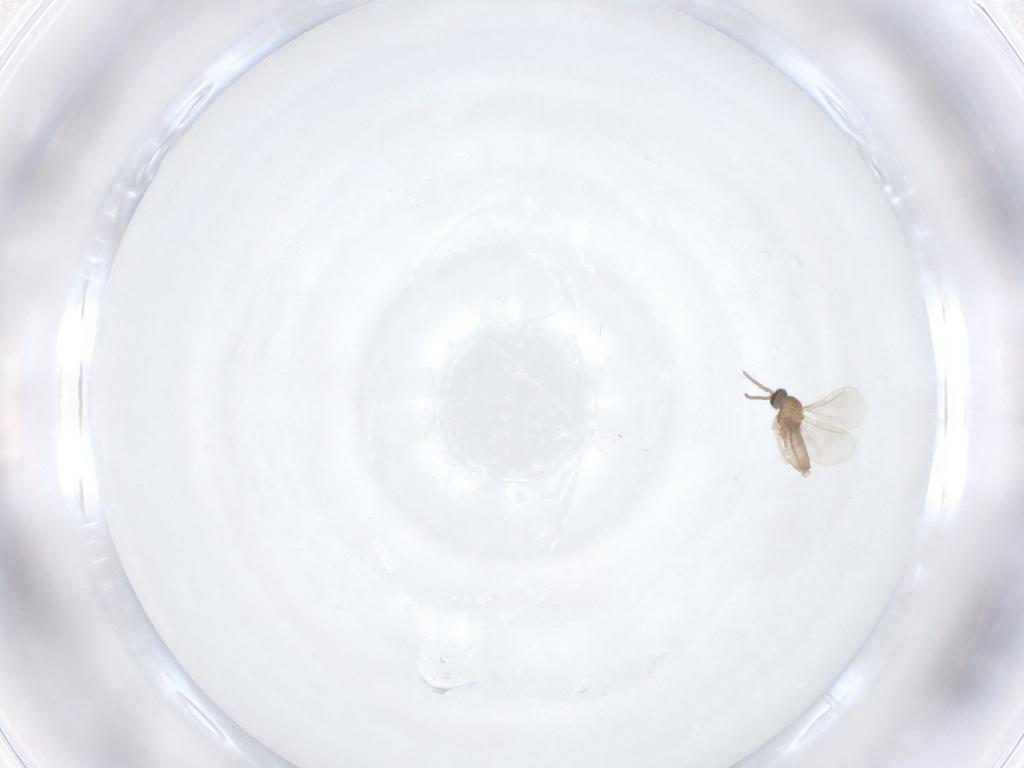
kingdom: Animalia
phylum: Arthropoda
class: Insecta
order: Diptera
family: Cecidomyiidae
